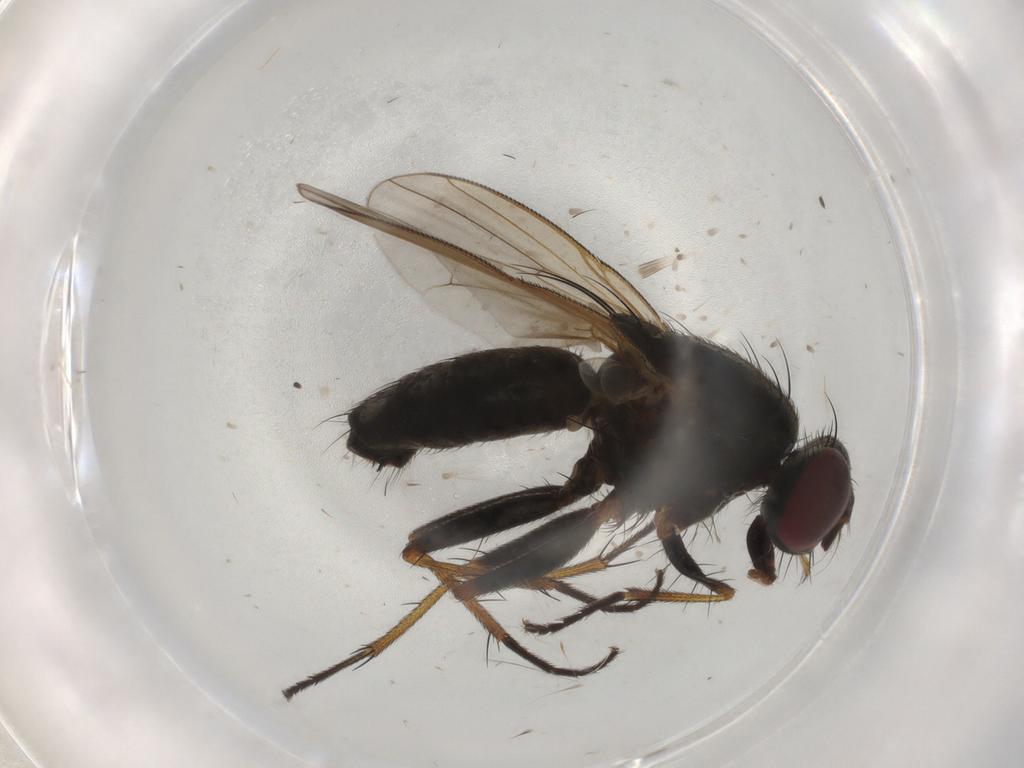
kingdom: Animalia
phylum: Arthropoda
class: Insecta
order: Diptera
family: Muscidae
